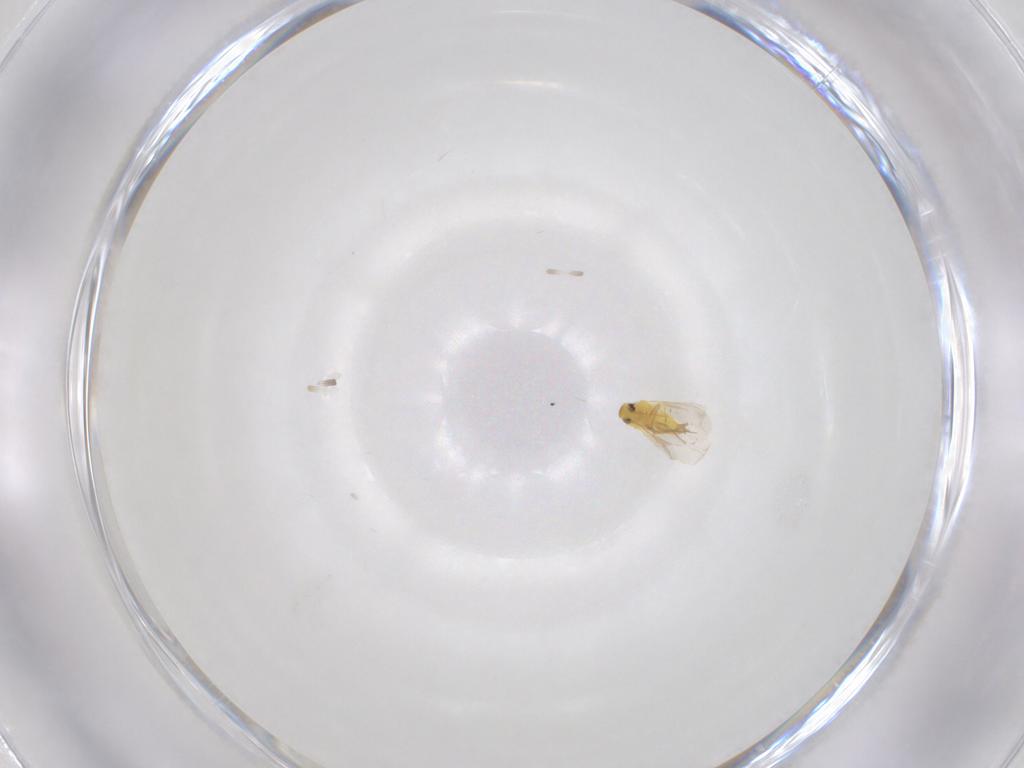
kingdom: Animalia
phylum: Arthropoda
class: Insecta
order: Hemiptera
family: Aleyrodidae
